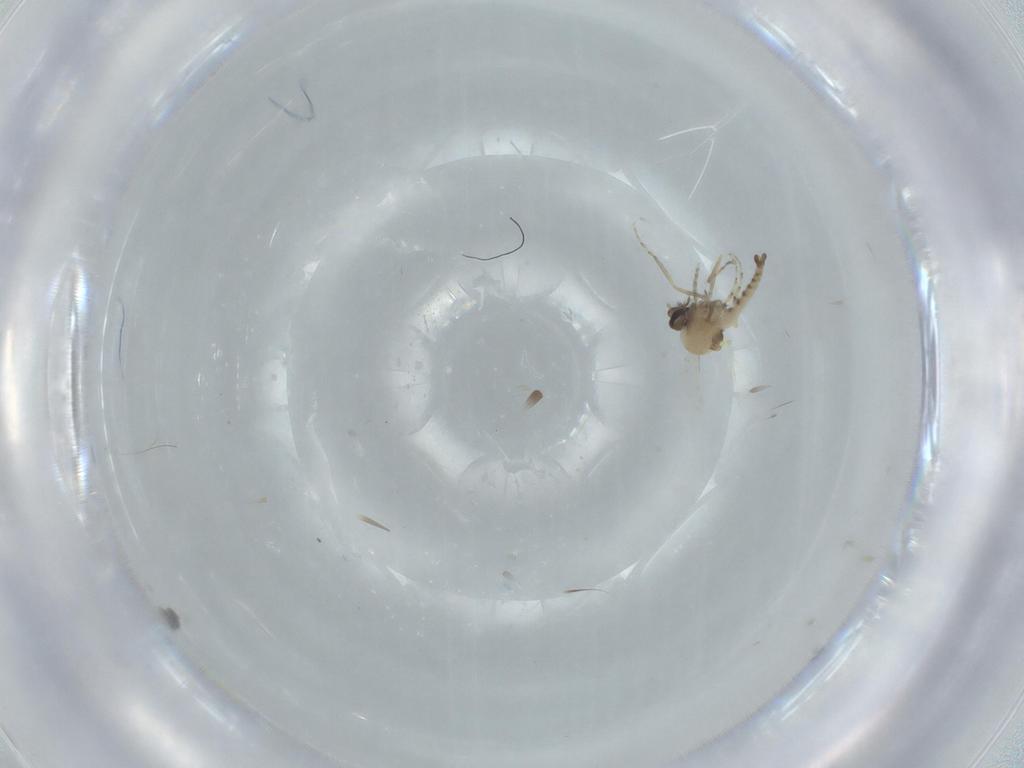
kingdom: Animalia
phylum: Arthropoda
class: Insecta
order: Diptera
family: Ceratopogonidae
